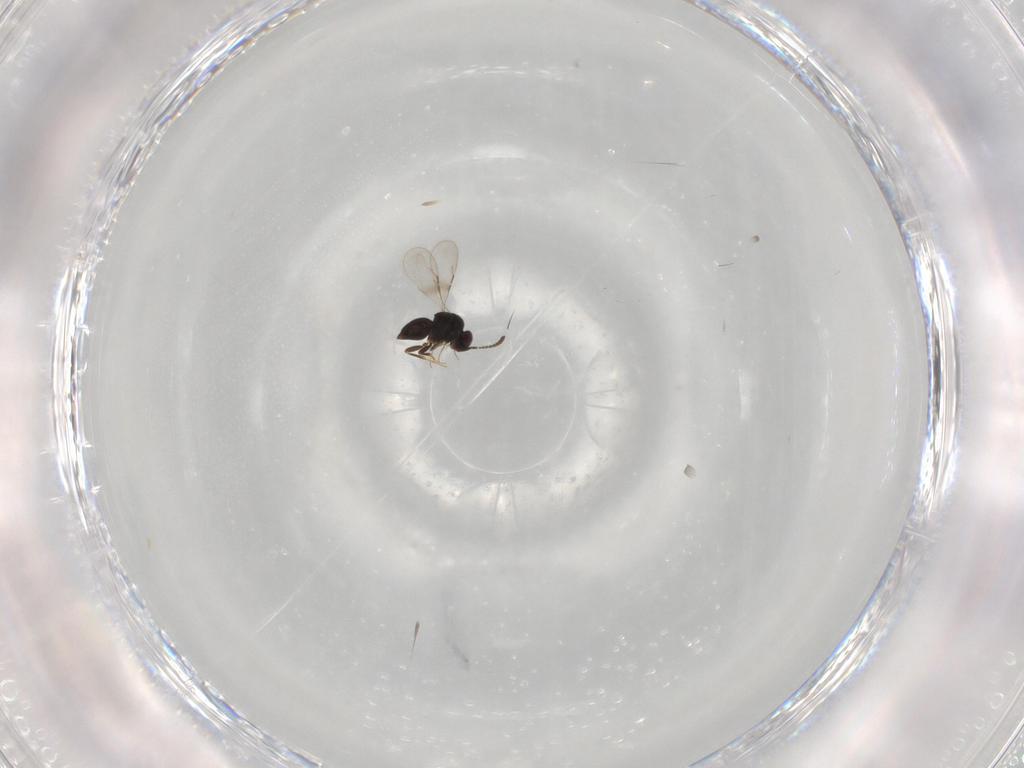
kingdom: Animalia
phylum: Arthropoda
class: Insecta
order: Hymenoptera
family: Ceraphronidae
